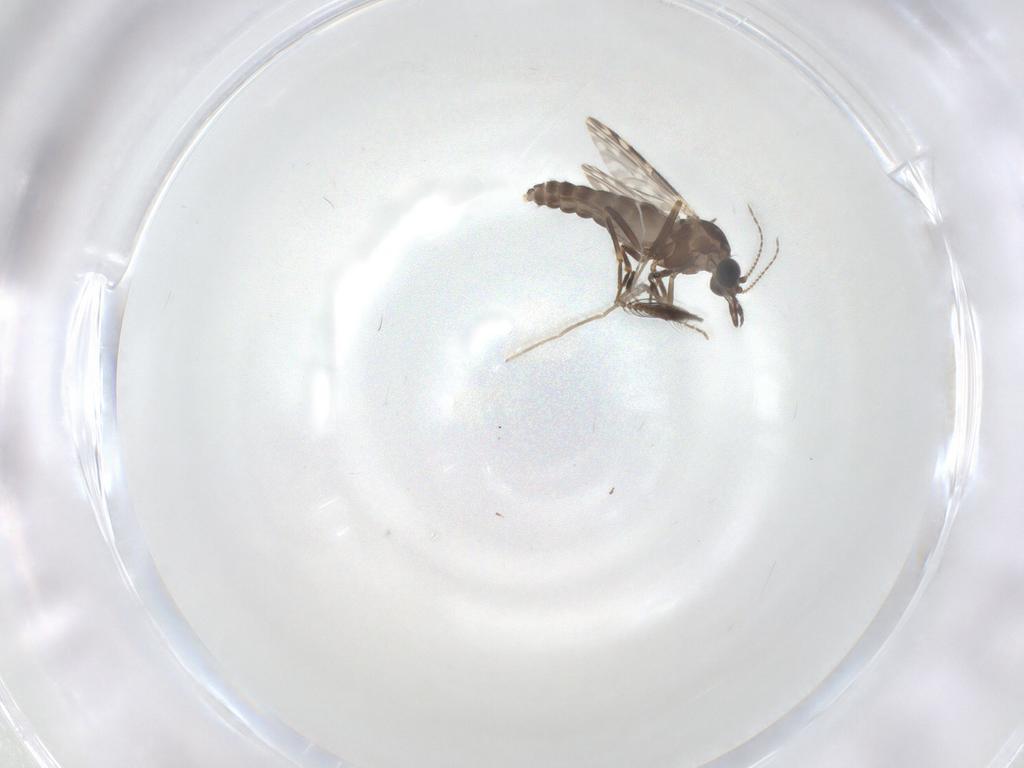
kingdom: Animalia
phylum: Arthropoda
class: Insecta
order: Diptera
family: Ceratopogonidae
